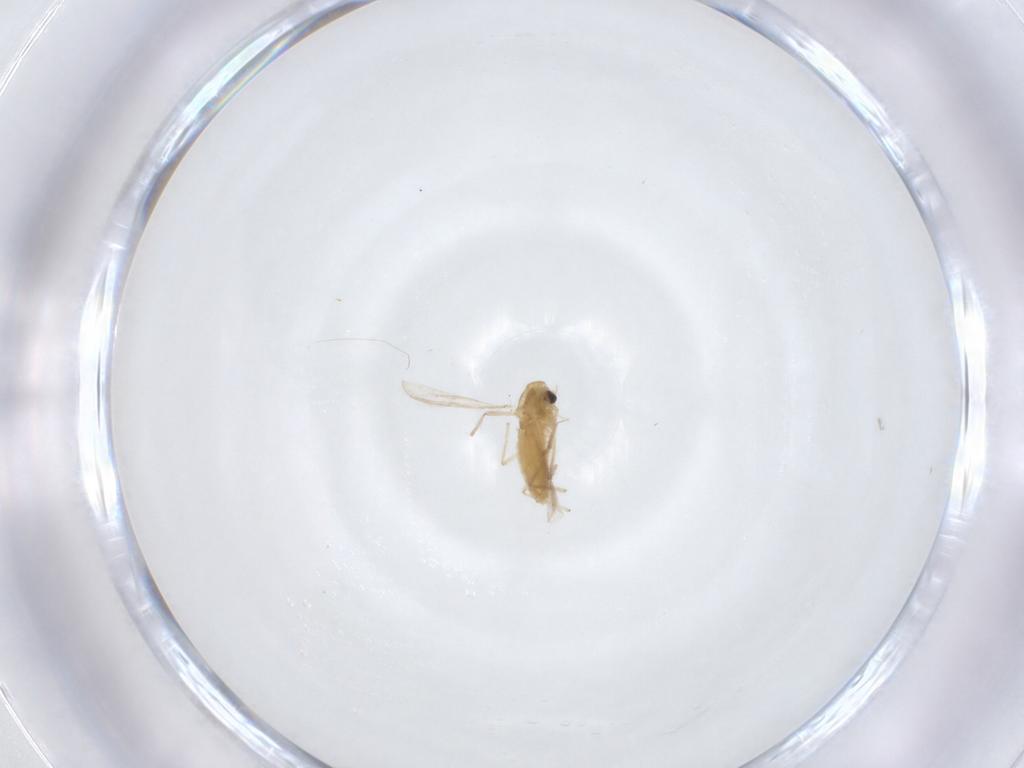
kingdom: Animalia
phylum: Arthropoda
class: Insecta
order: Diptera
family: Chironomidae
